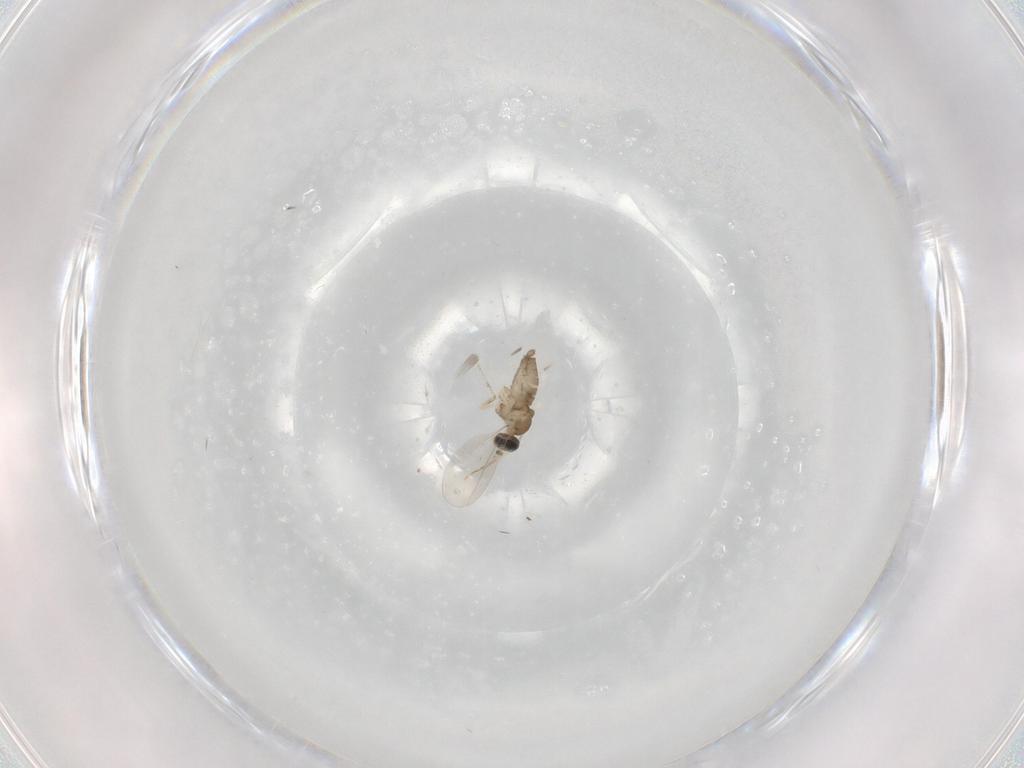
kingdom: Animalia
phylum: Arthropoda
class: Insecta
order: Diptera
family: Cecidomyiidae
